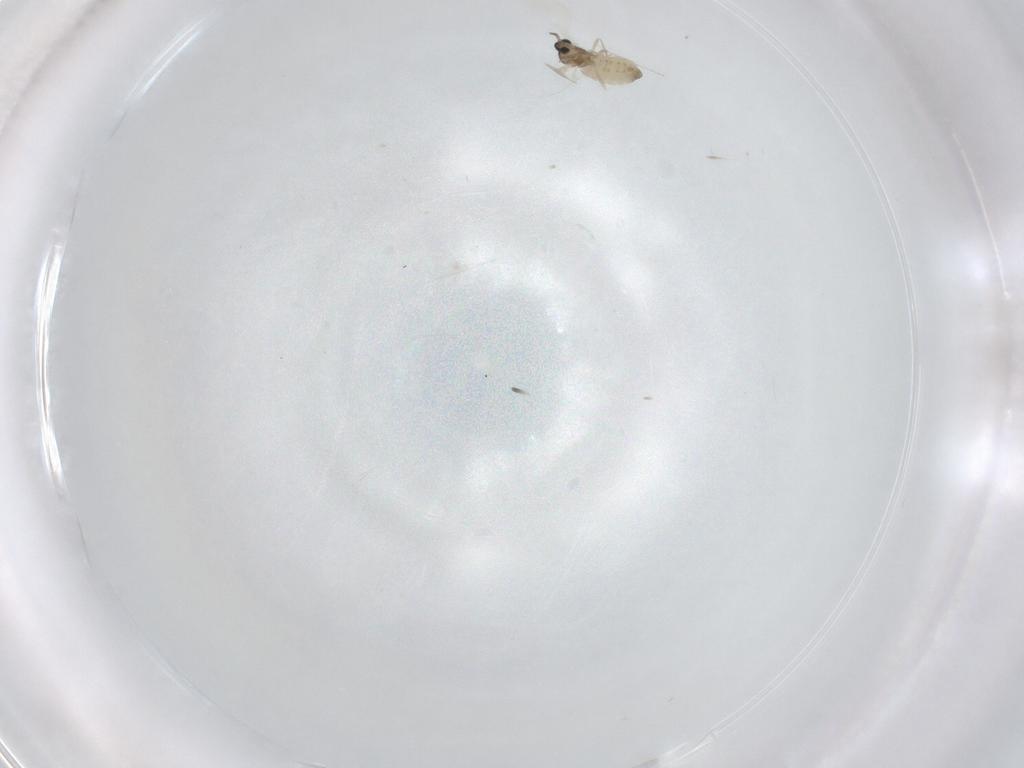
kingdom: Animalia
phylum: Arthropoda
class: Insecta
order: Diptera
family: Cecidomyiidae
